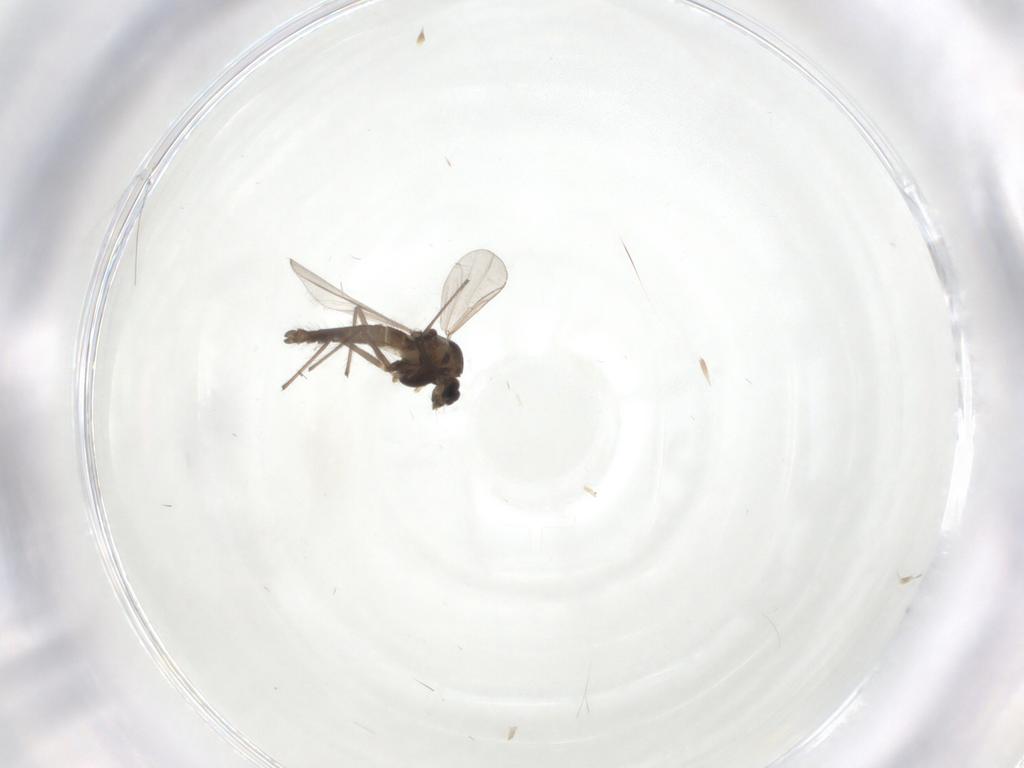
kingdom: Animalia
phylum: Arthropoda
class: Insecta
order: Diptera
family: Chironomidae
